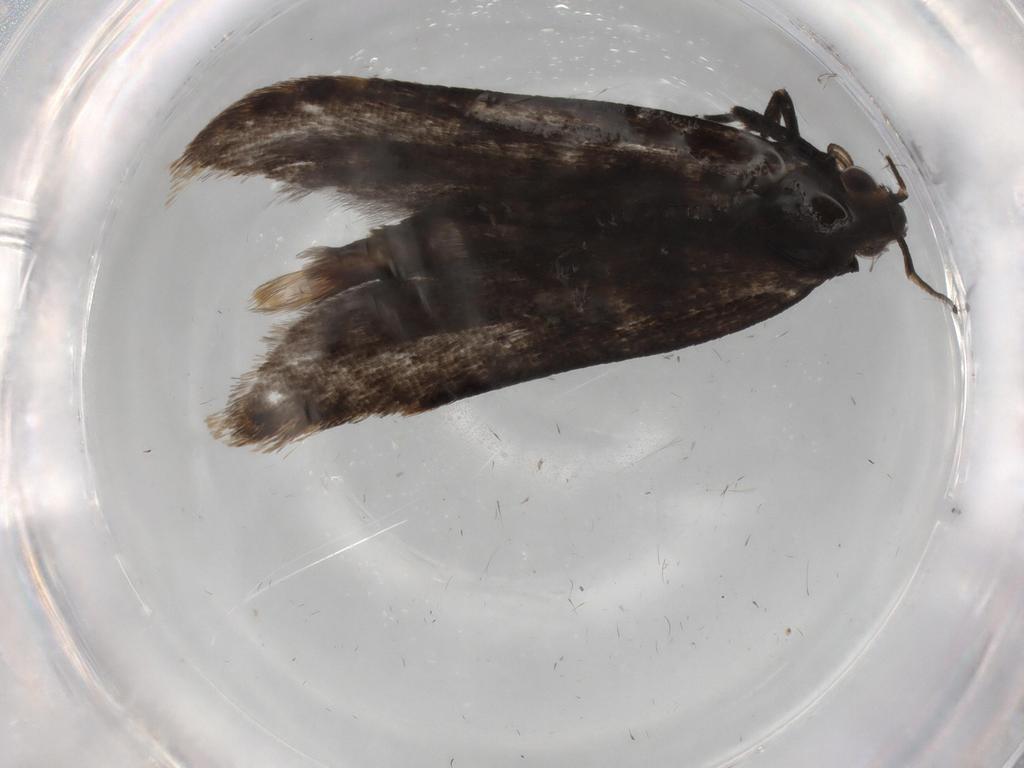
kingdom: Animalia
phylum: Arthropoda
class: Insecta
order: Lepidoptera
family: Gelechiidae
